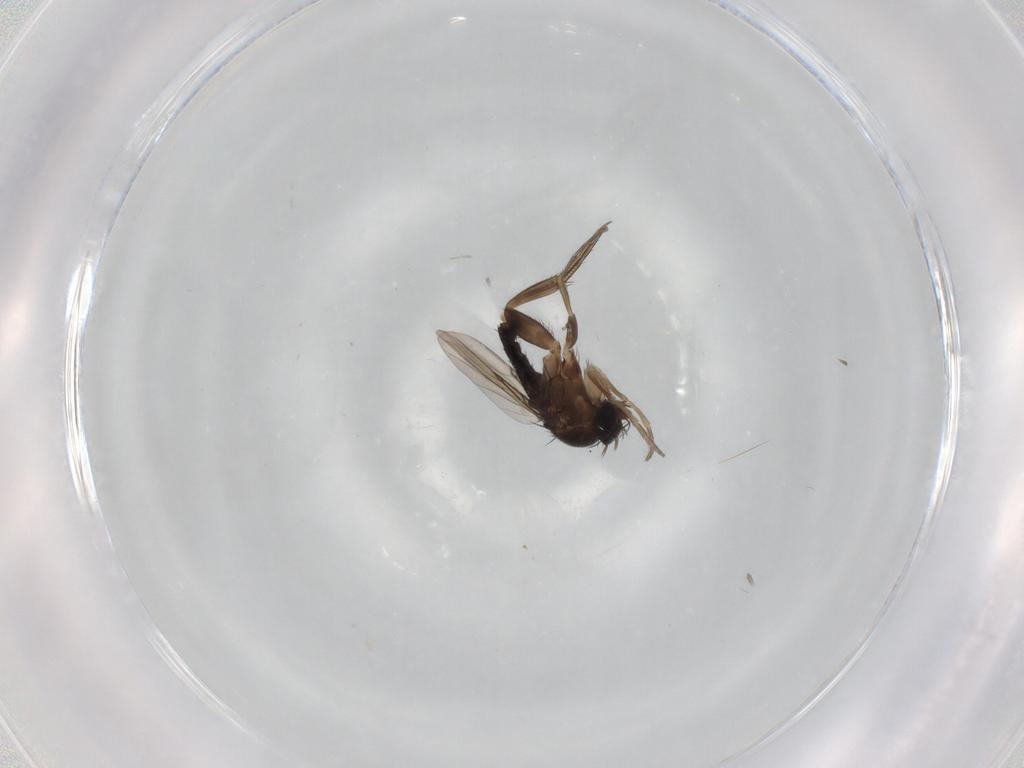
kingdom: Animalia
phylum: Arthropoda
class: Insecta
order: Diptera
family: Phoridae
